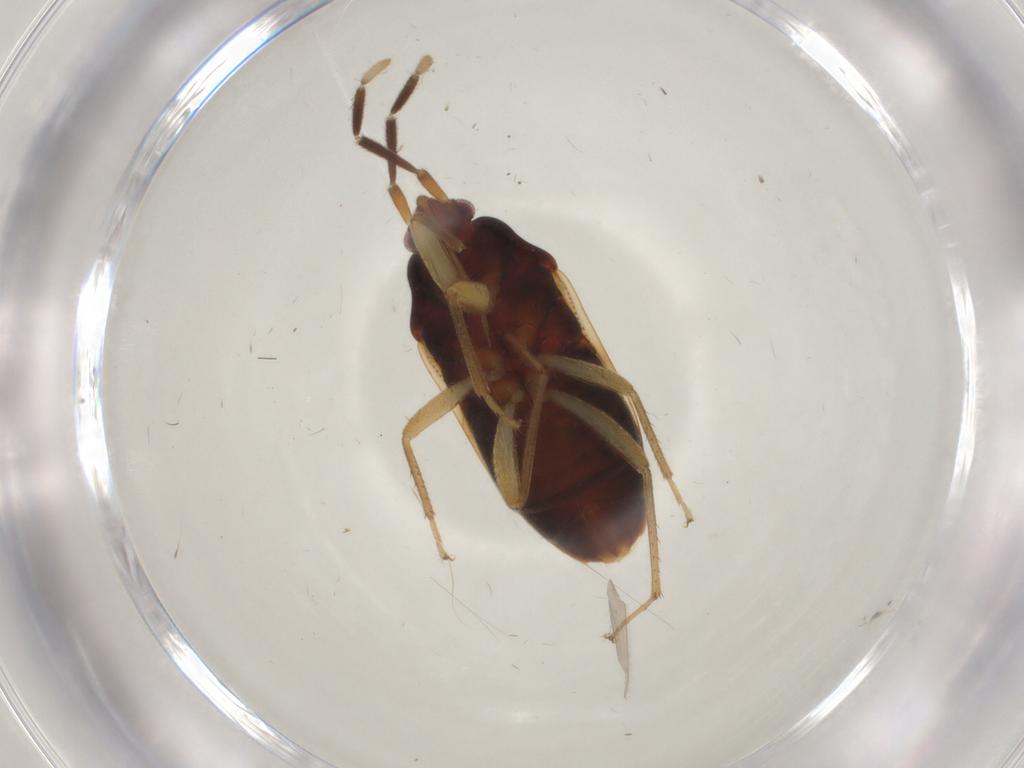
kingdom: Animalia
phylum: Arthropoda
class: Insecta
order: Hemiptera
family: Rhyparochromidae
